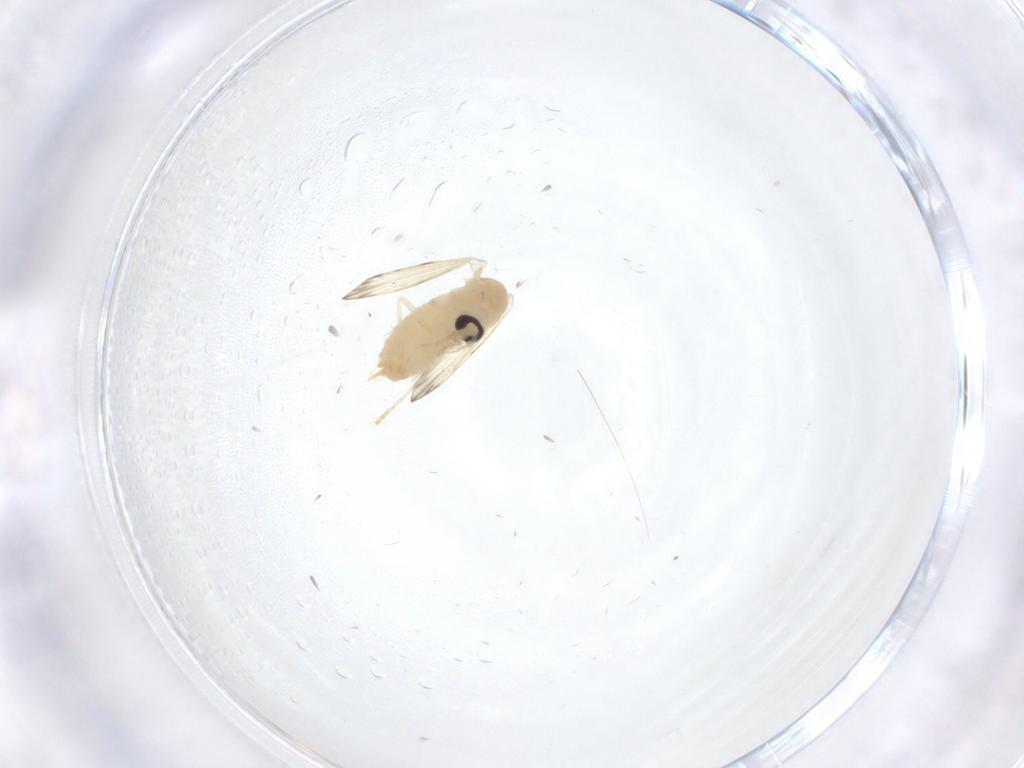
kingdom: Animalia
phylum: Arthropoda
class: Insecta
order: Diptera
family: Psychodidae
